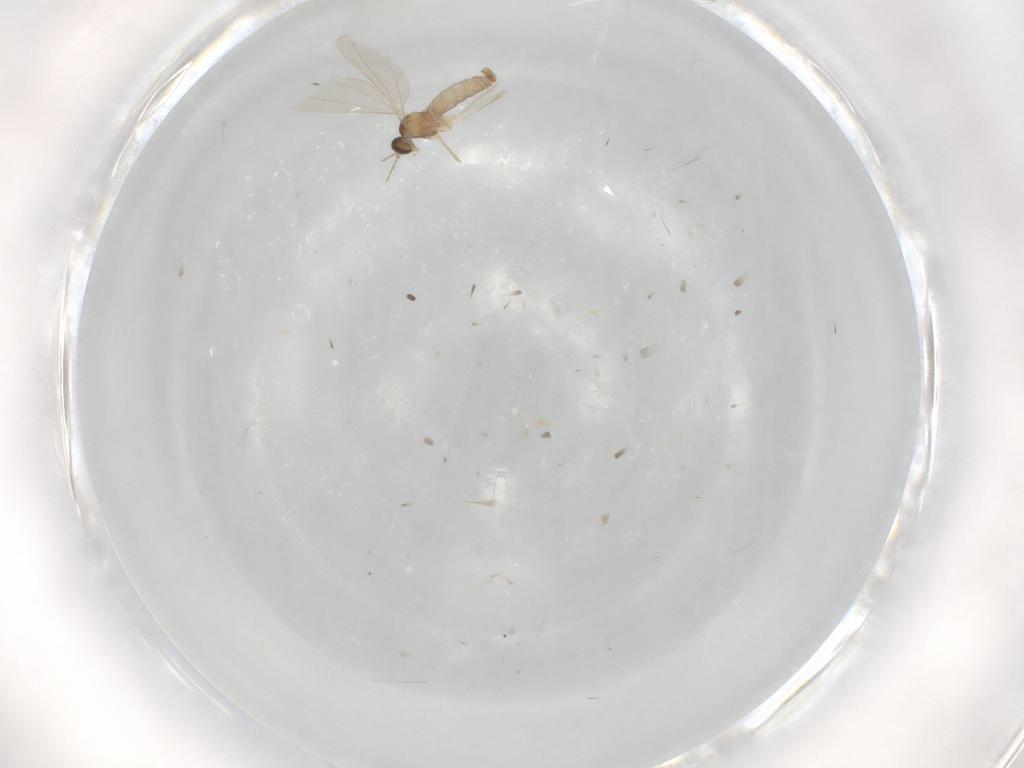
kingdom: Animalia
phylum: Arthropoda
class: Insecta
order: Diptera
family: Cecidomyiidae
